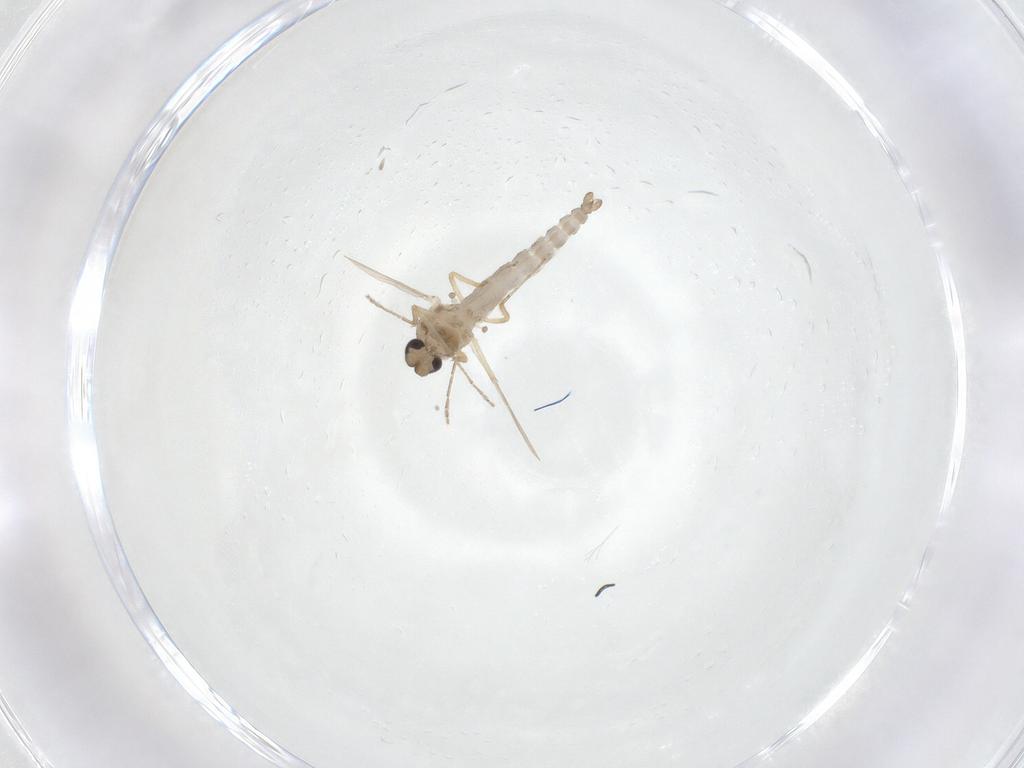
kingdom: Animalia
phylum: Arthropoda
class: Insecta
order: Diptera
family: Ceratopogonidae
